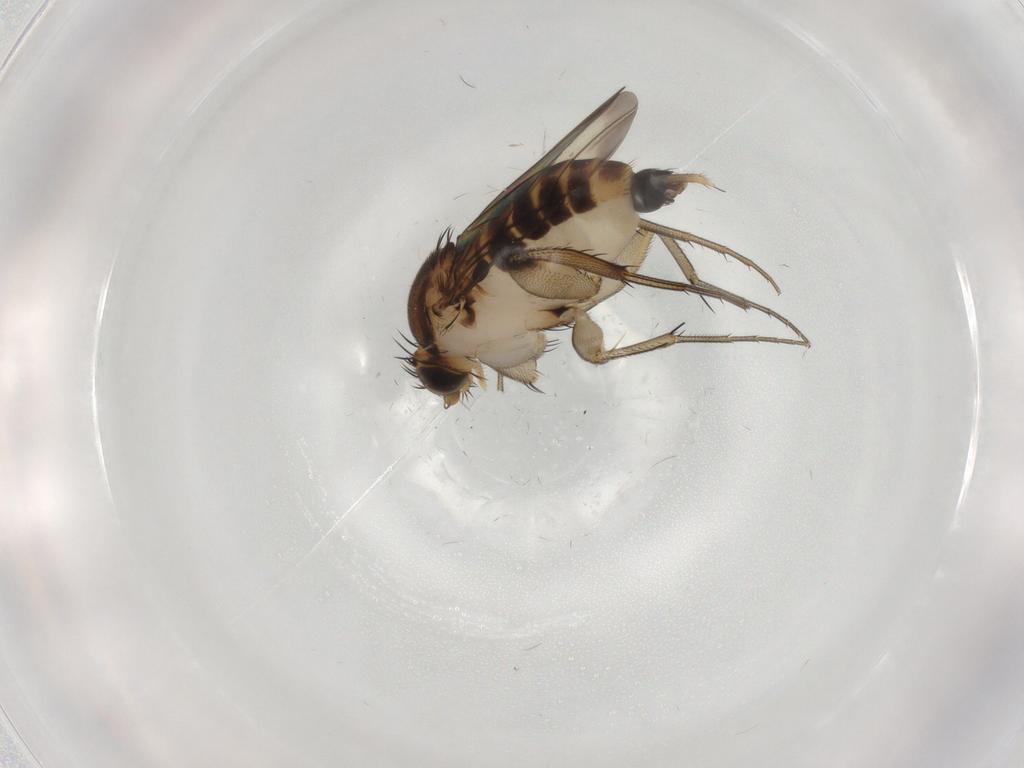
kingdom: Animalia
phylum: Arthropoda
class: Insecta
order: Diptera
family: Phoridae
